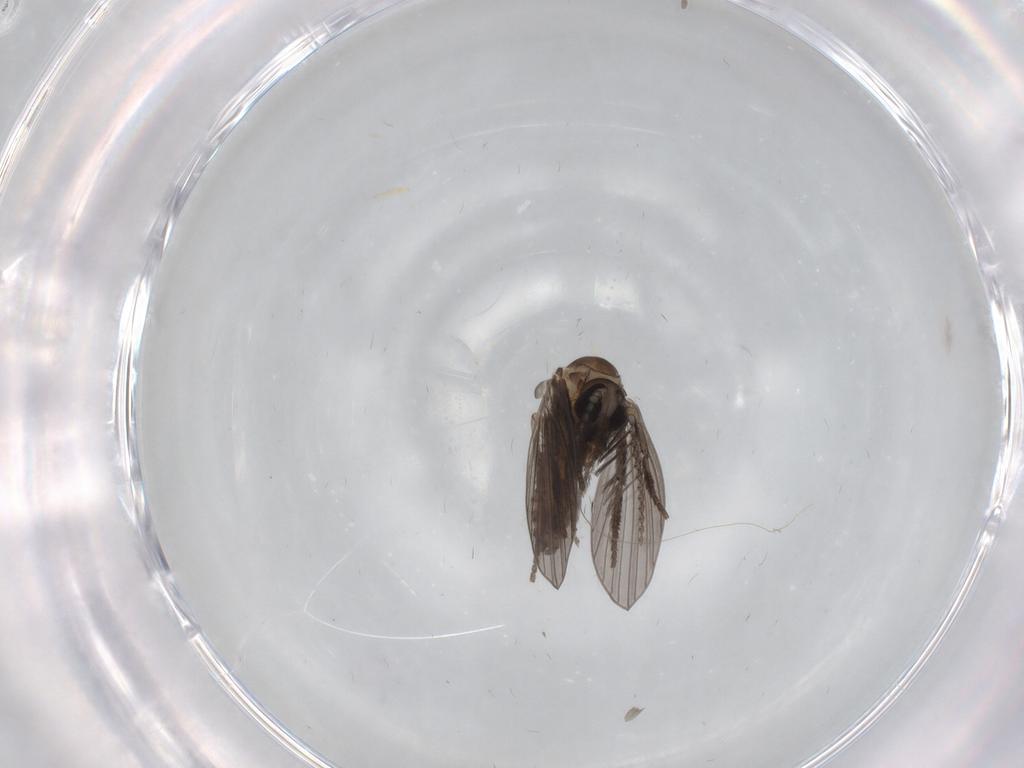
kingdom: Animalia
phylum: Arthropoda
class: Insecta
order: Diptera
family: Psychodidae
